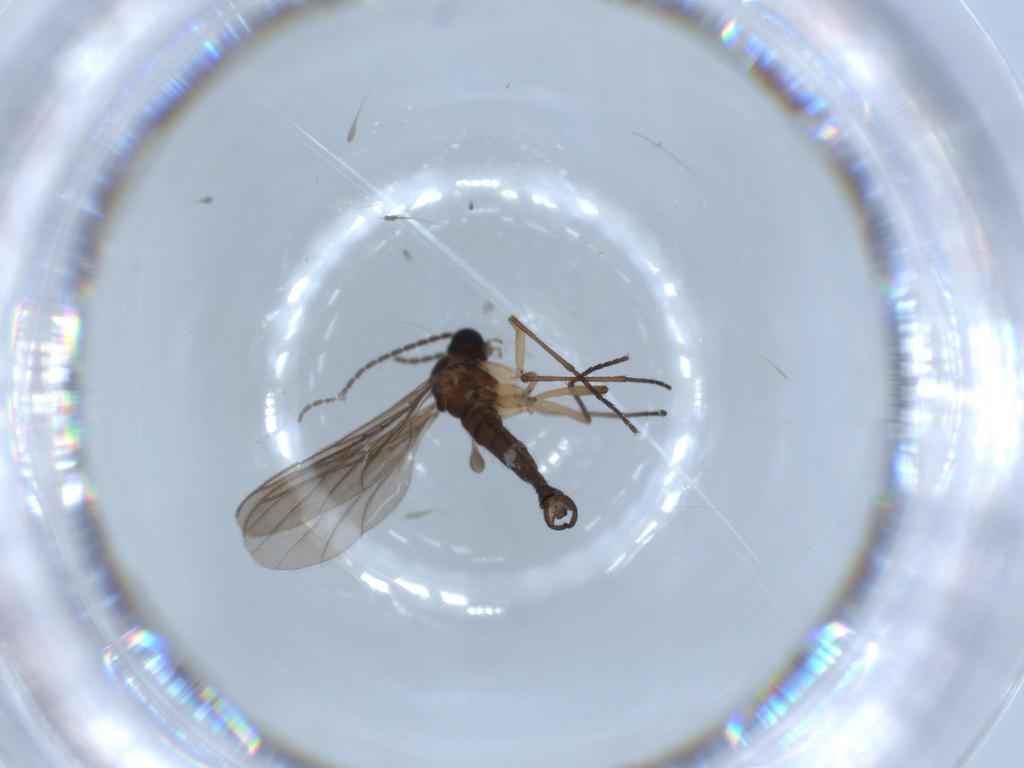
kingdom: Animalia
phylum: Arthropoda
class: Insecta
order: Diptera
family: Sciaridae
